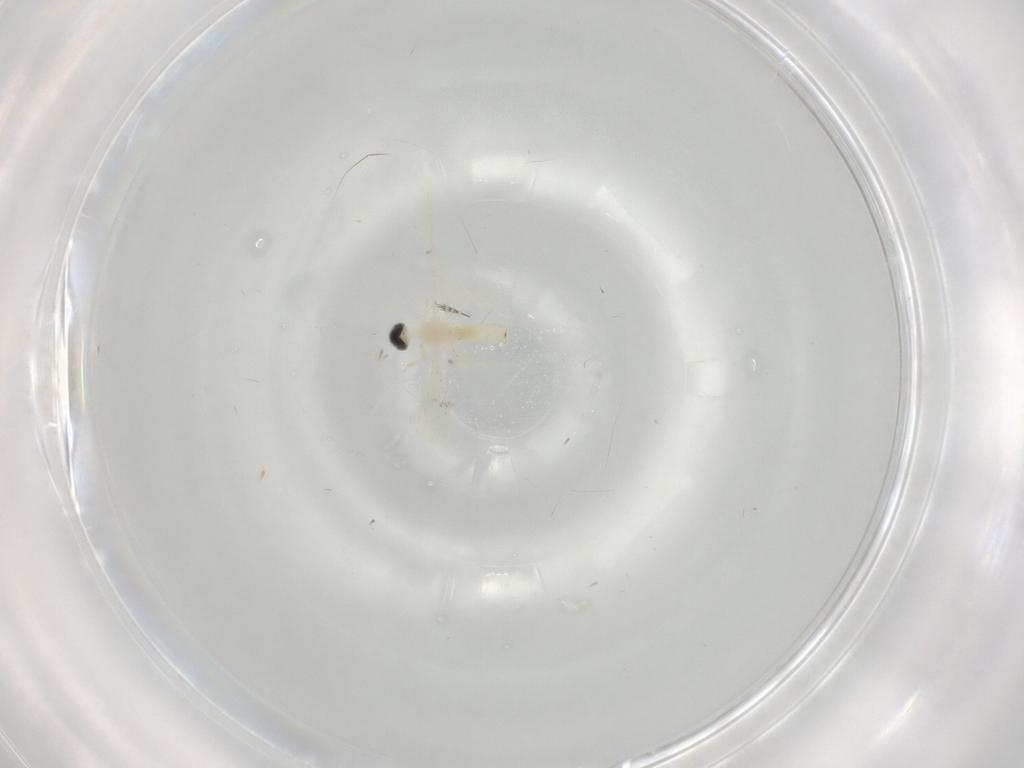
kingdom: Animalia
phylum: Arthropoda
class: Insecta
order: Diptera
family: Cecidomyiidae
